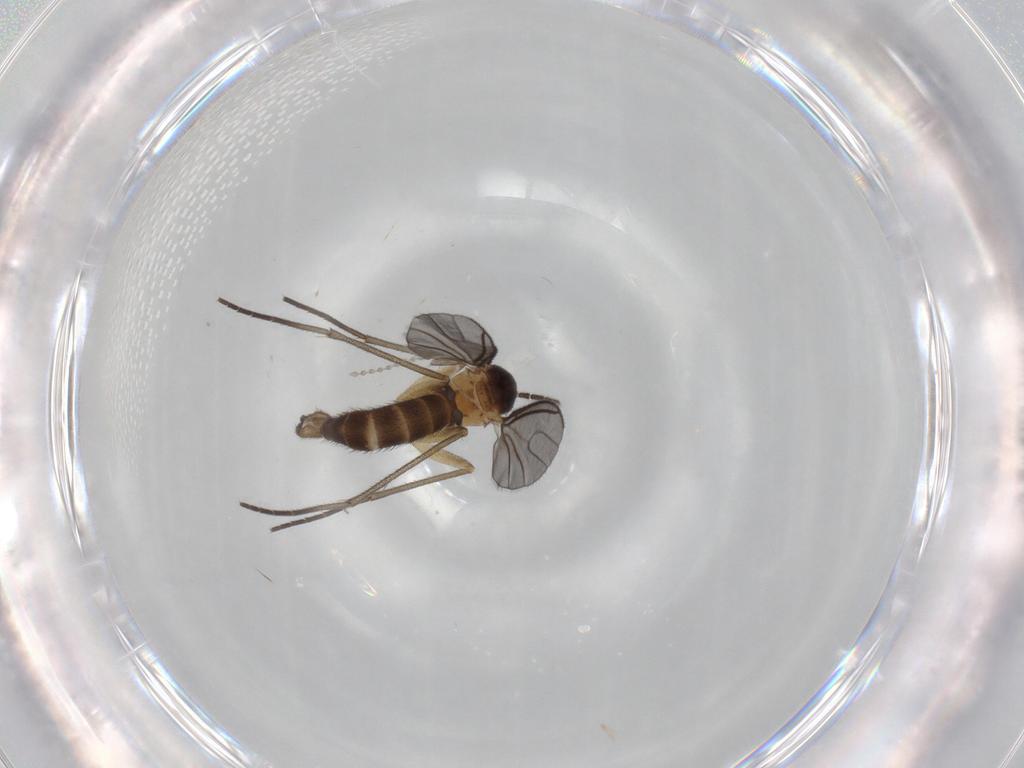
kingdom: Animalia
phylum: Arthropoda
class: Insecta
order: Diptera
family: Sciaridae
